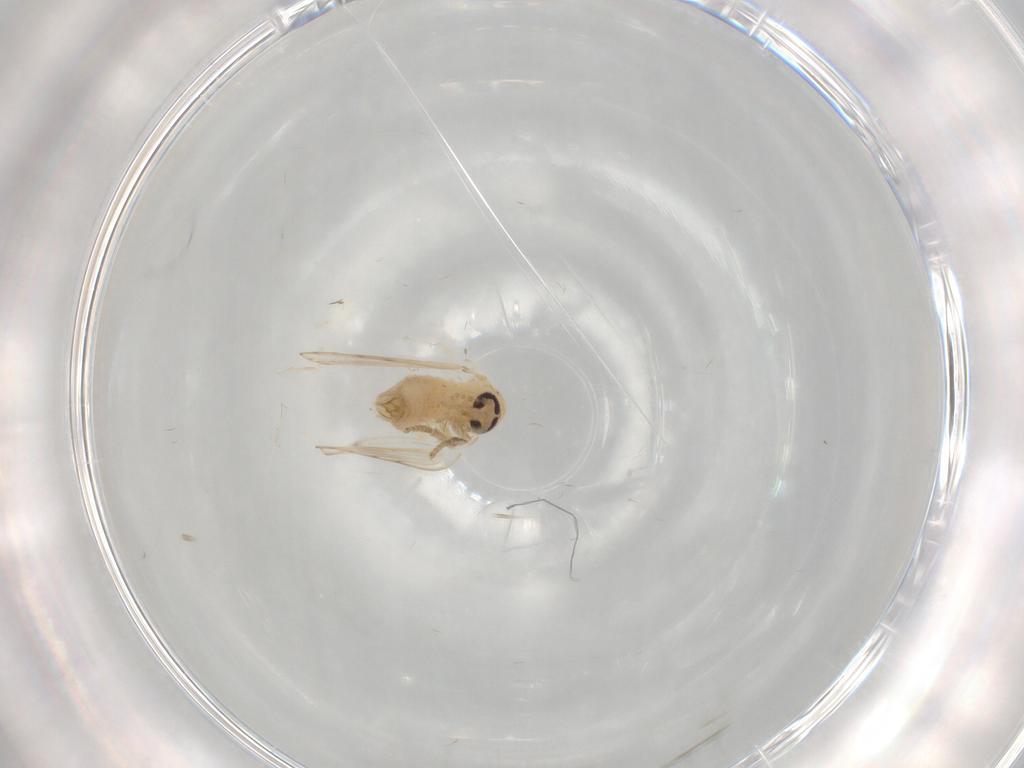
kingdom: Animalia
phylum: Arthropoda
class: Insecta
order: Diptera
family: Psychodidae
